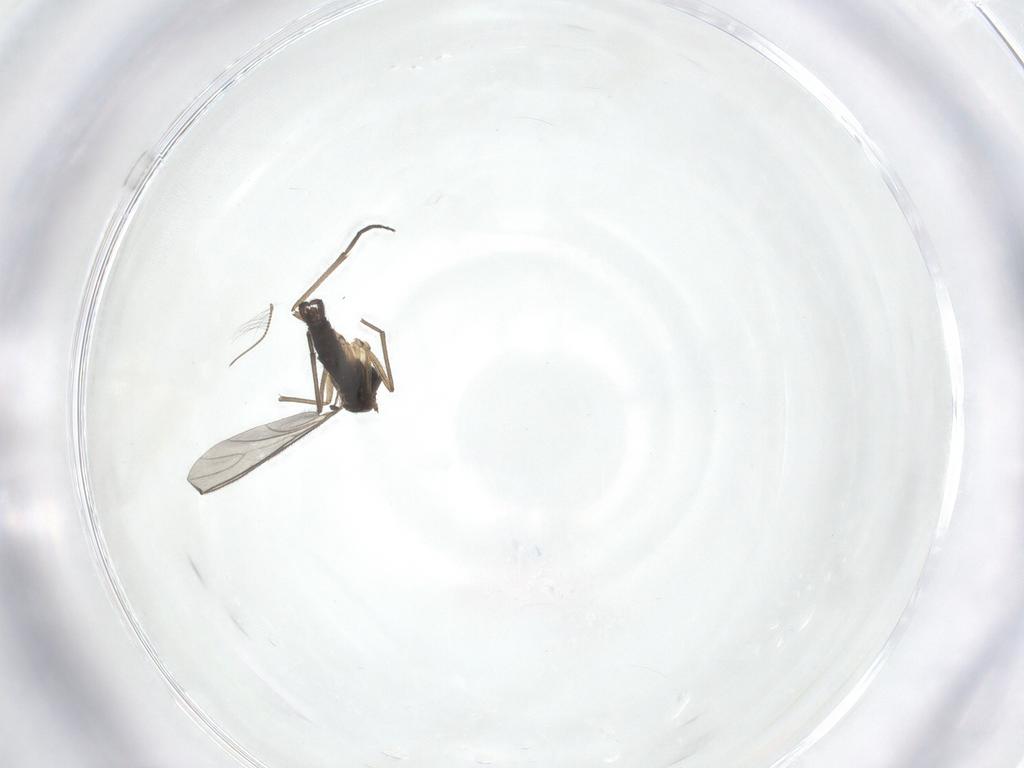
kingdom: Animalia
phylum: Arthropoda
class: Insecta
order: Diptera
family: Sciaridae
